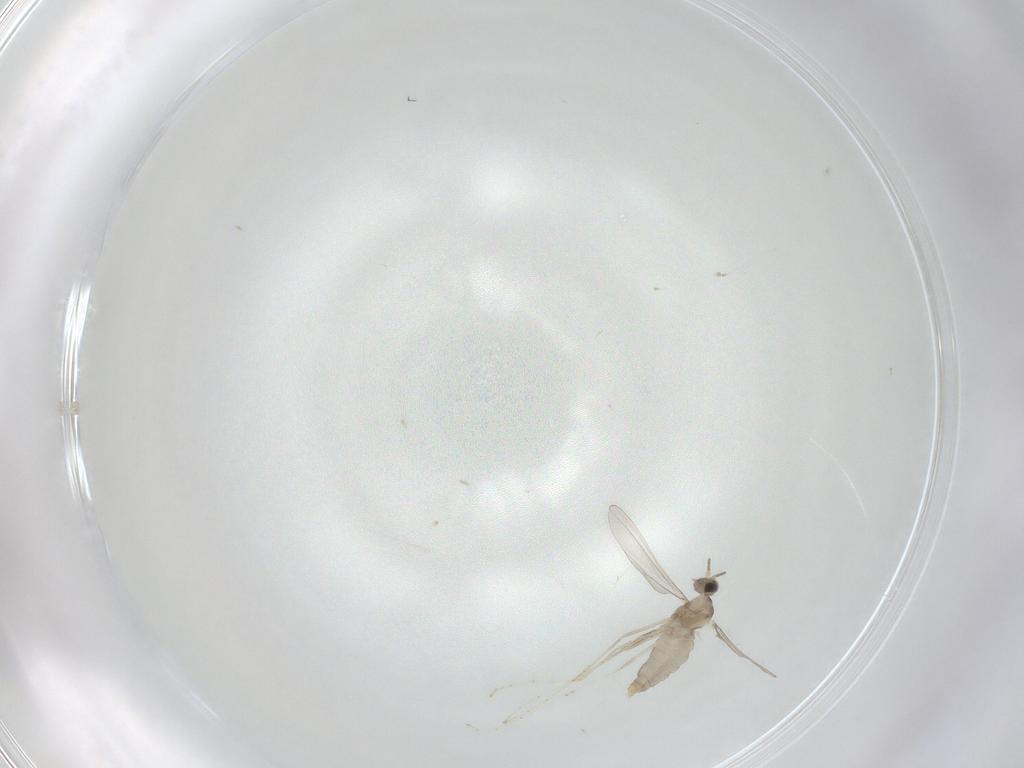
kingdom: Animalia
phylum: Arthropoda
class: Insecta
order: Diptera
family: Cecidomyiidae
